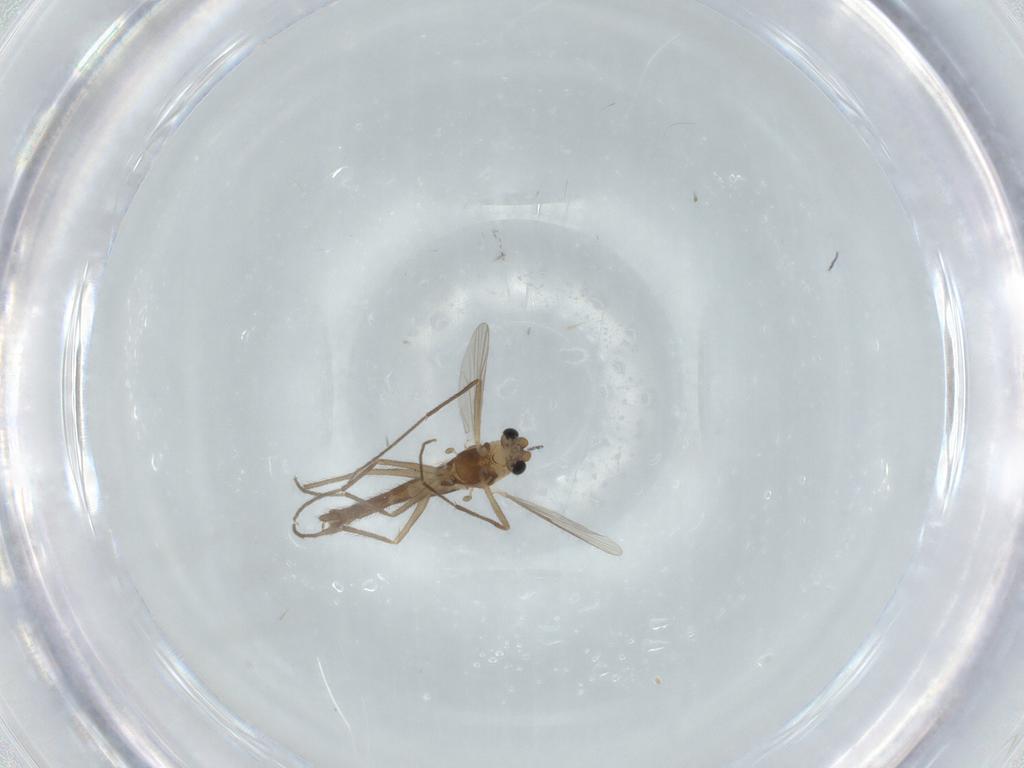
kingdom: Animalia
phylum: Arthropoda
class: Insecta
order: Diptera
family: Chironomidae
